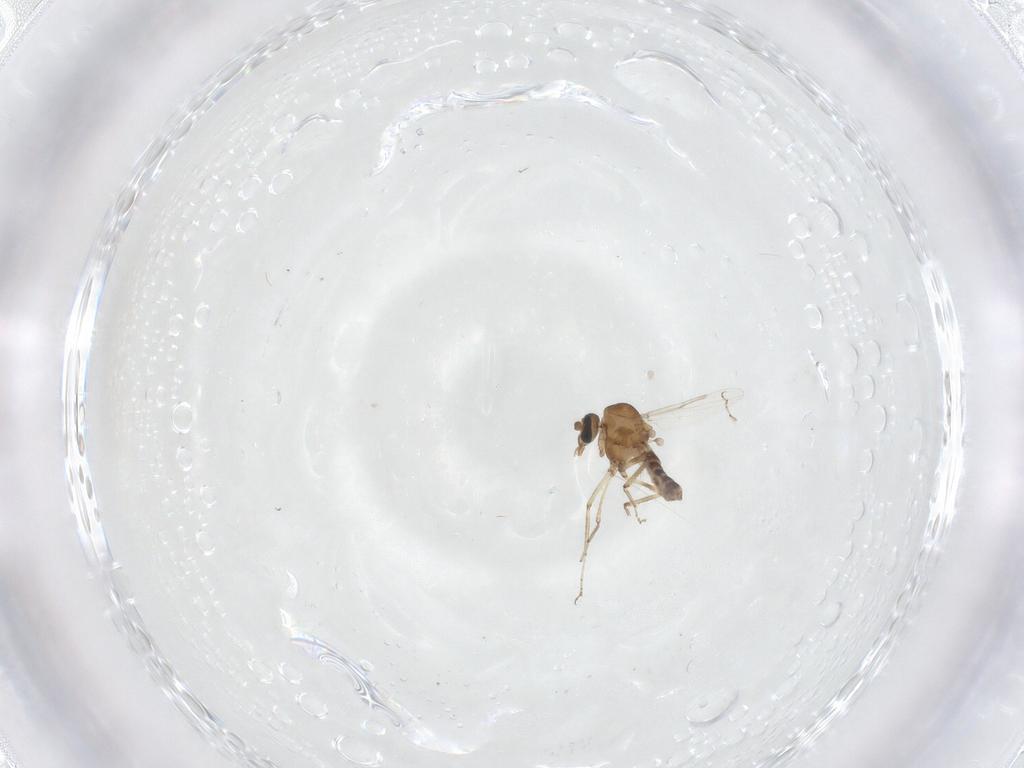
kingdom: Animalia
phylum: Arthropoda
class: Insecta
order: Diptera
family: Ceratopogonidae
